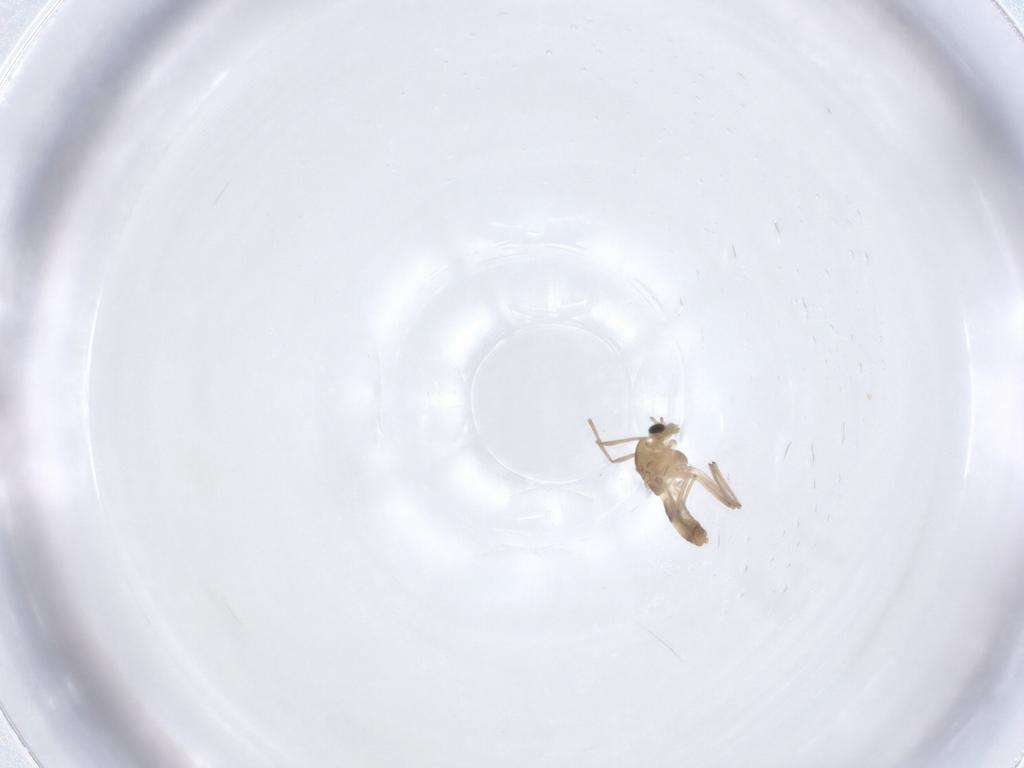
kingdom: Animalia
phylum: Arthropoda
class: Insecta
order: Diptera
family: Chironomidae
